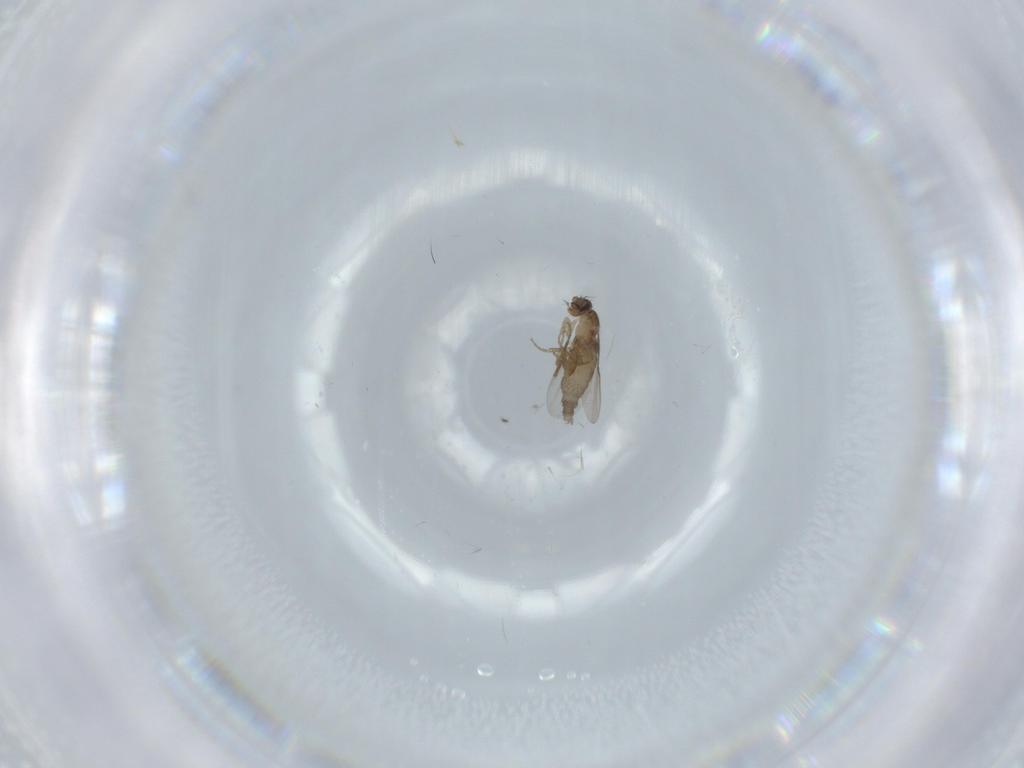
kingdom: Animalia
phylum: Arthropoda
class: Insecta
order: Diptera
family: Phoridae
